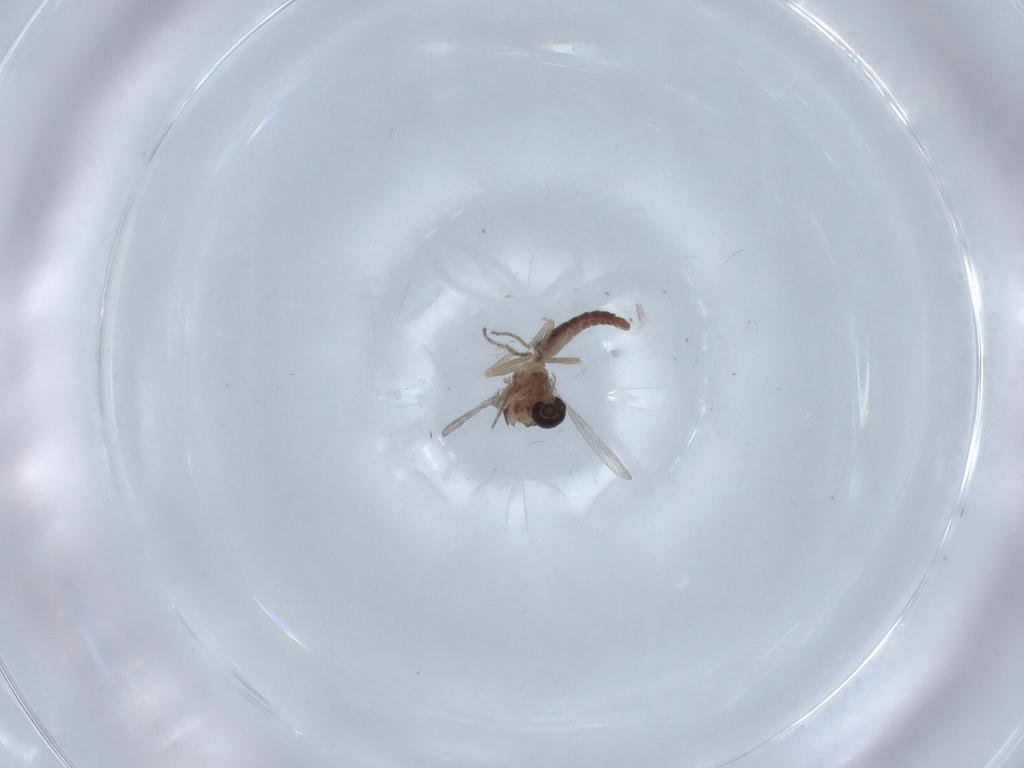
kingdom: Animalia
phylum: Arthropoda
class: Insecta
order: Diptera
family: Ceratopogonidae
